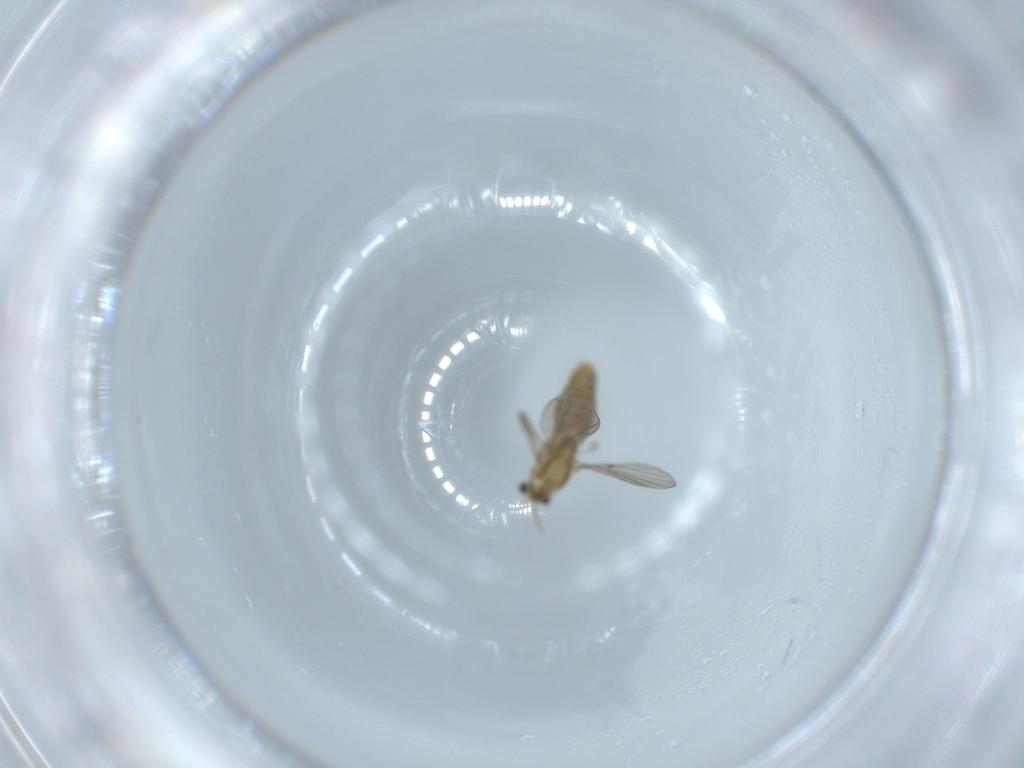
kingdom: Animalia
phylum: Arthropoda
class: Insecta
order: Diptera
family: Chironomidae
